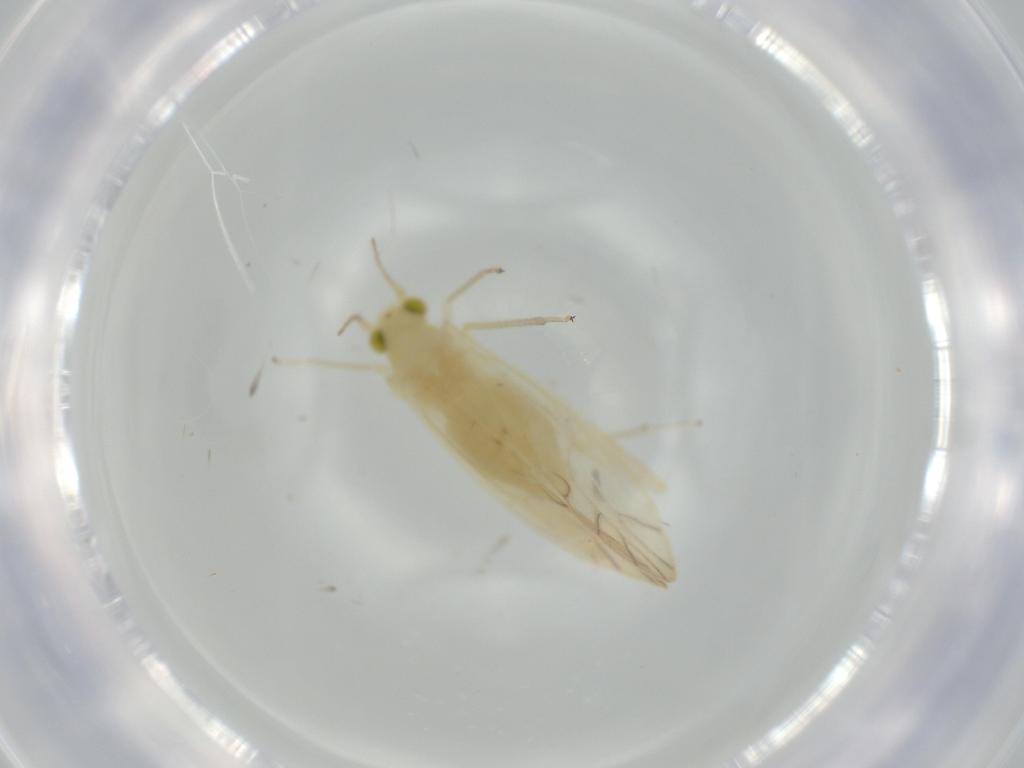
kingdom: Animalia
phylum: Arthropoda
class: Insecta
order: Psocodea
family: Caeciliusidae
